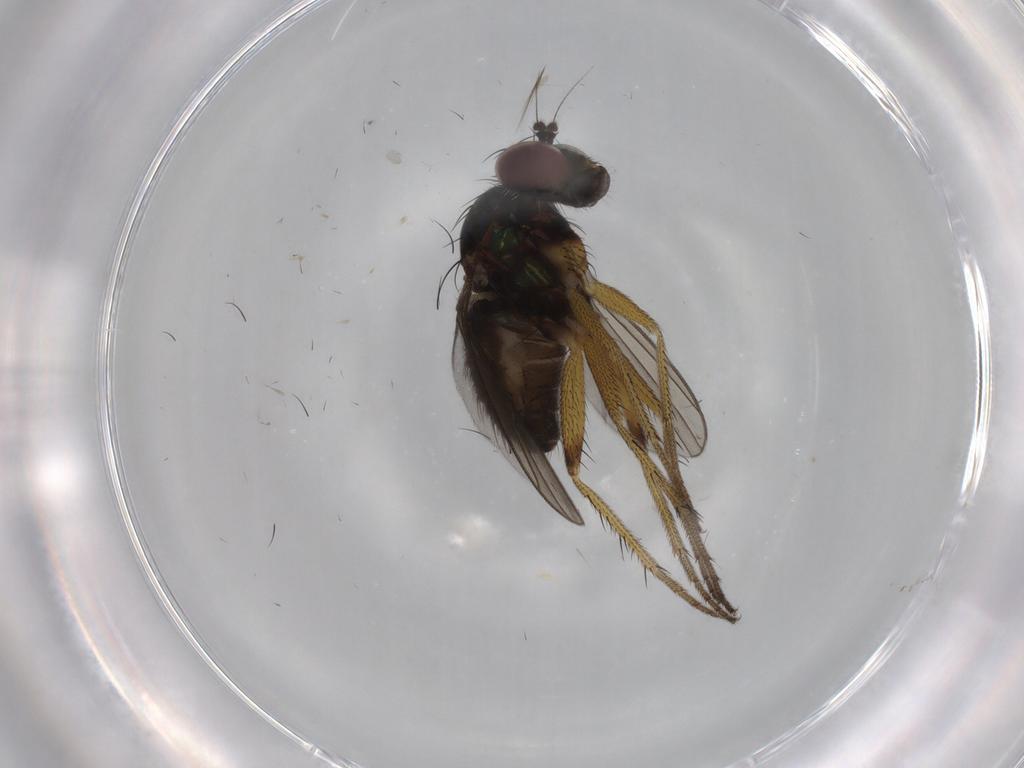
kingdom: Animalia
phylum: Arthropoda
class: Insecta
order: Diptera
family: Dolichopodidae
